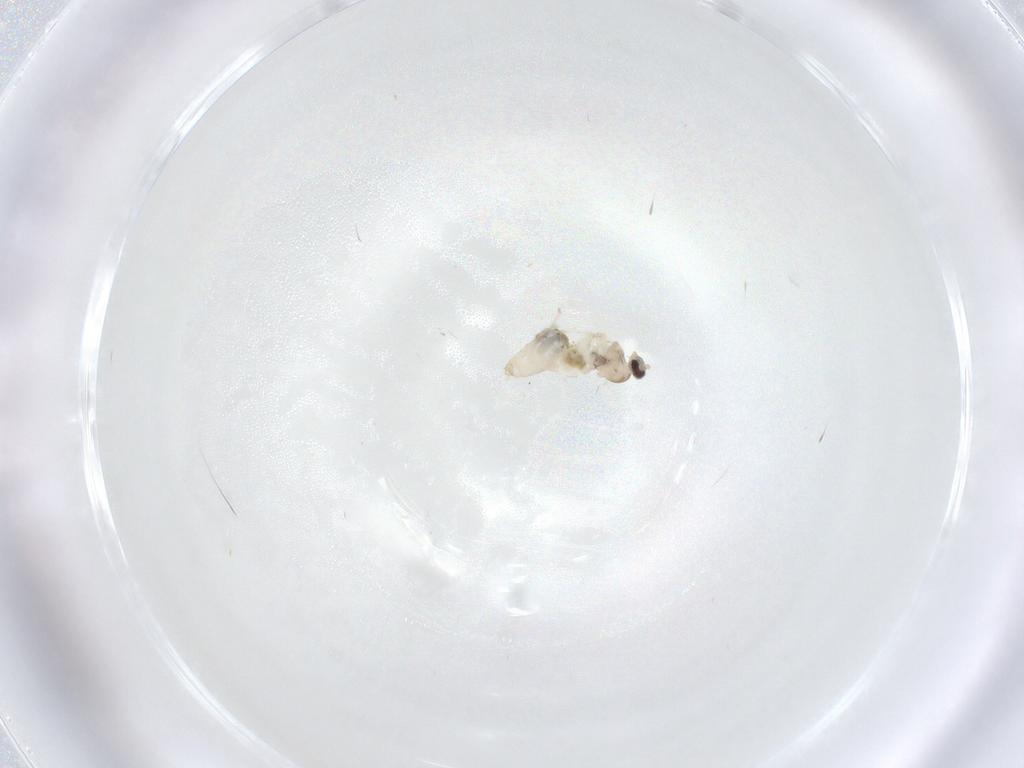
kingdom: Animalia
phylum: Arthropoda
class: Insecta
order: Diptera
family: Cecidomyiidae
